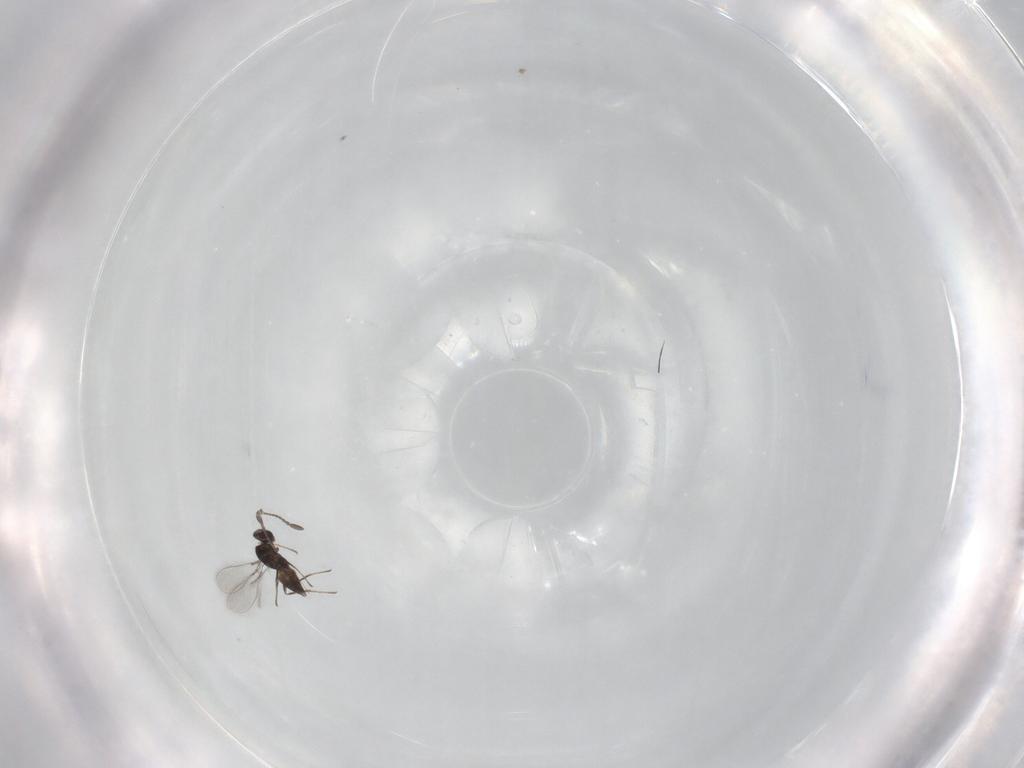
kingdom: Animalia
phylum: Arthropoda
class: Insecta
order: Hymenoptera
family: Mymaridae
